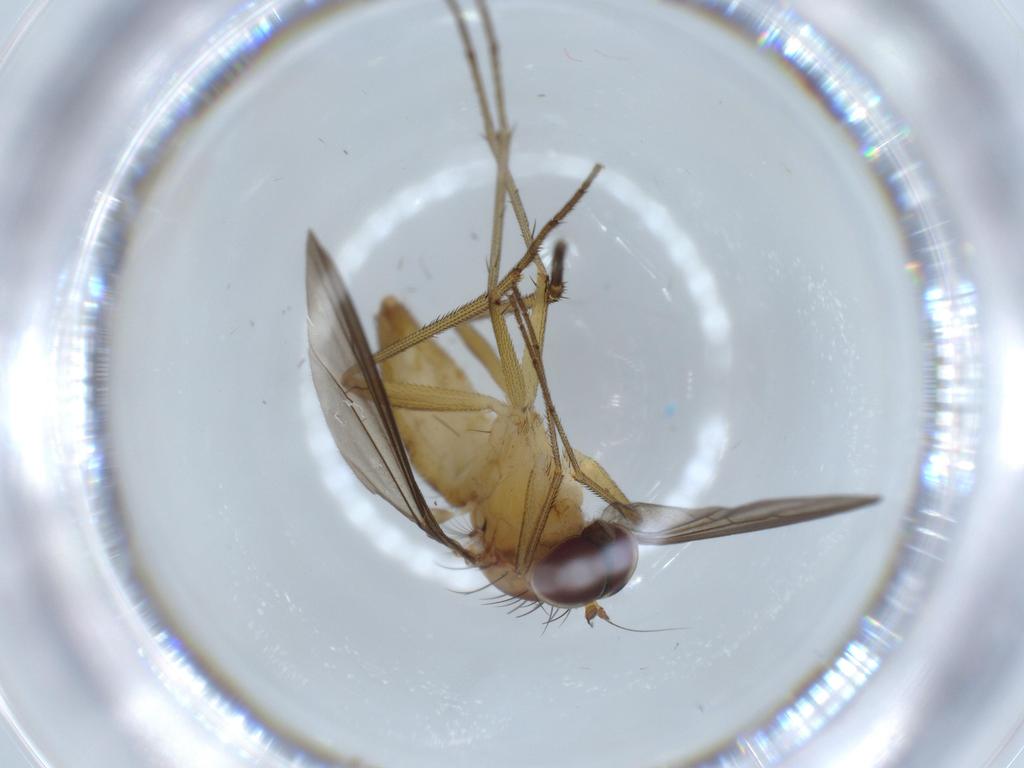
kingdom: Animalia
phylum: Arthropoda
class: Insecta
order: Diptera
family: Dolichopodidae
